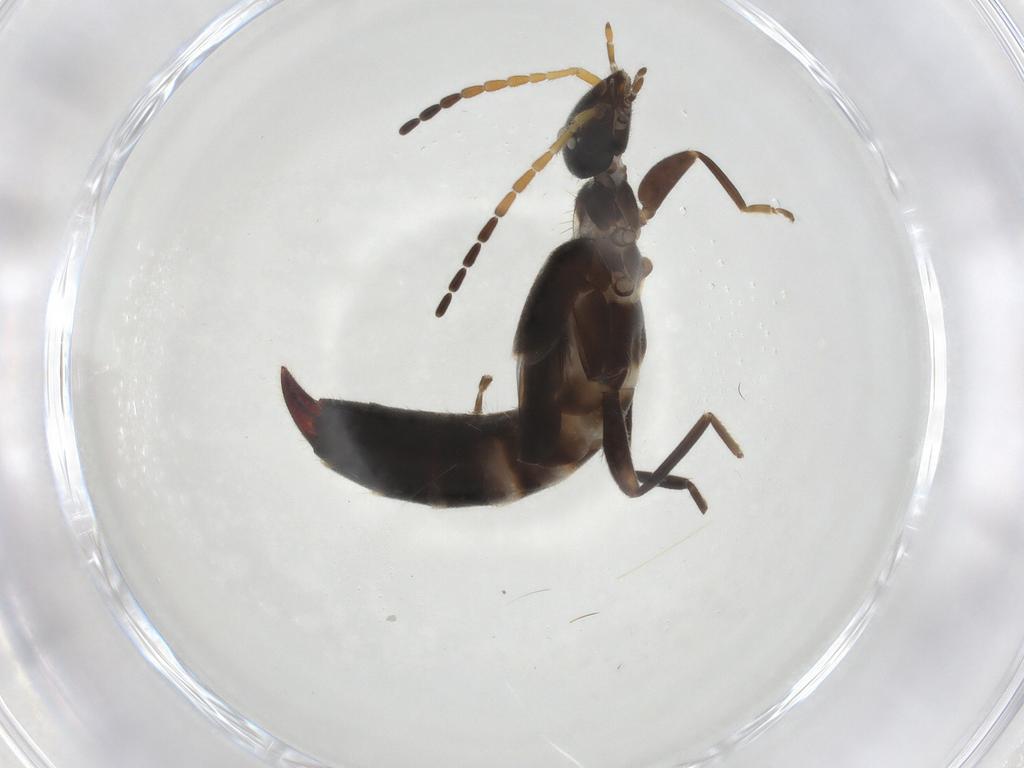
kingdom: Animalia
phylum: Arthropoda
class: Insecta
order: Dermaptera
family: Forficulidae
